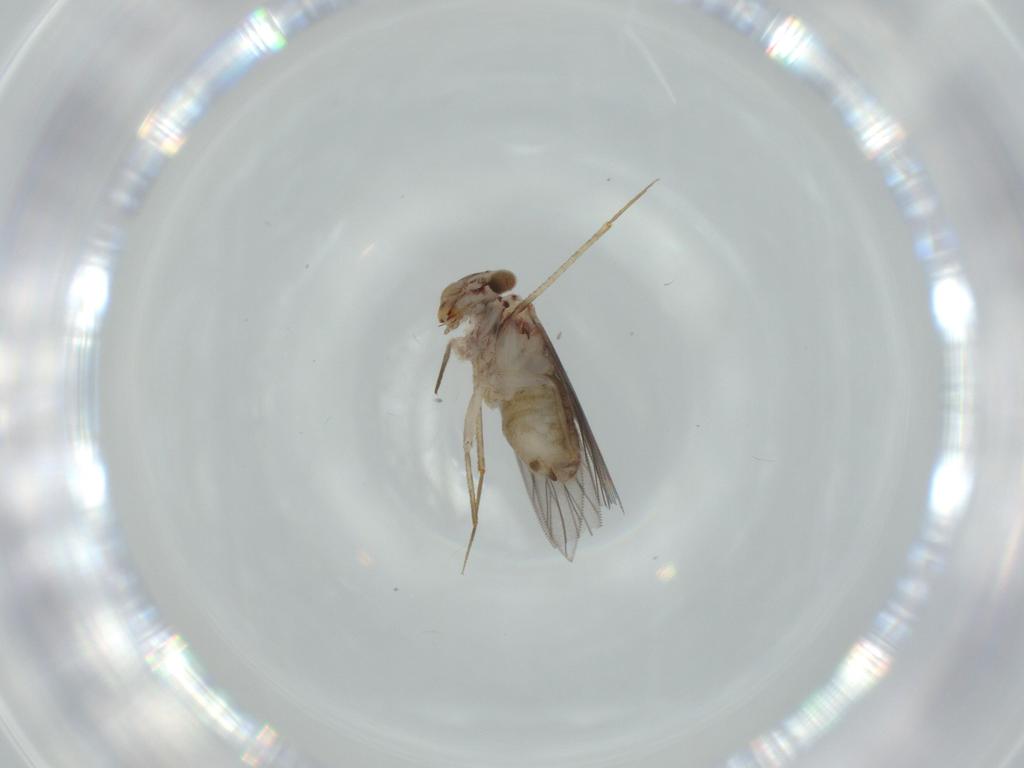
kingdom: Animalia
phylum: Arthropoda
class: Insecta
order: Psocodea
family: Lepidopsocidae
